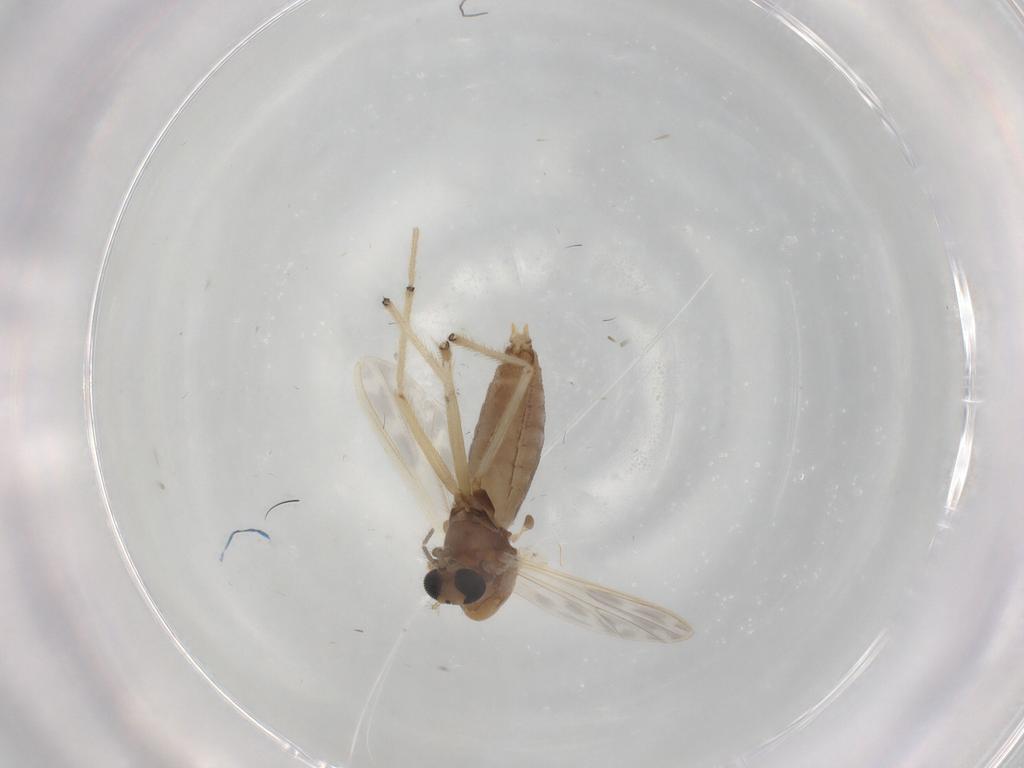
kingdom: Animalia
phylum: Arthropoda
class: Insecta
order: Diptera
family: Chironomidae
